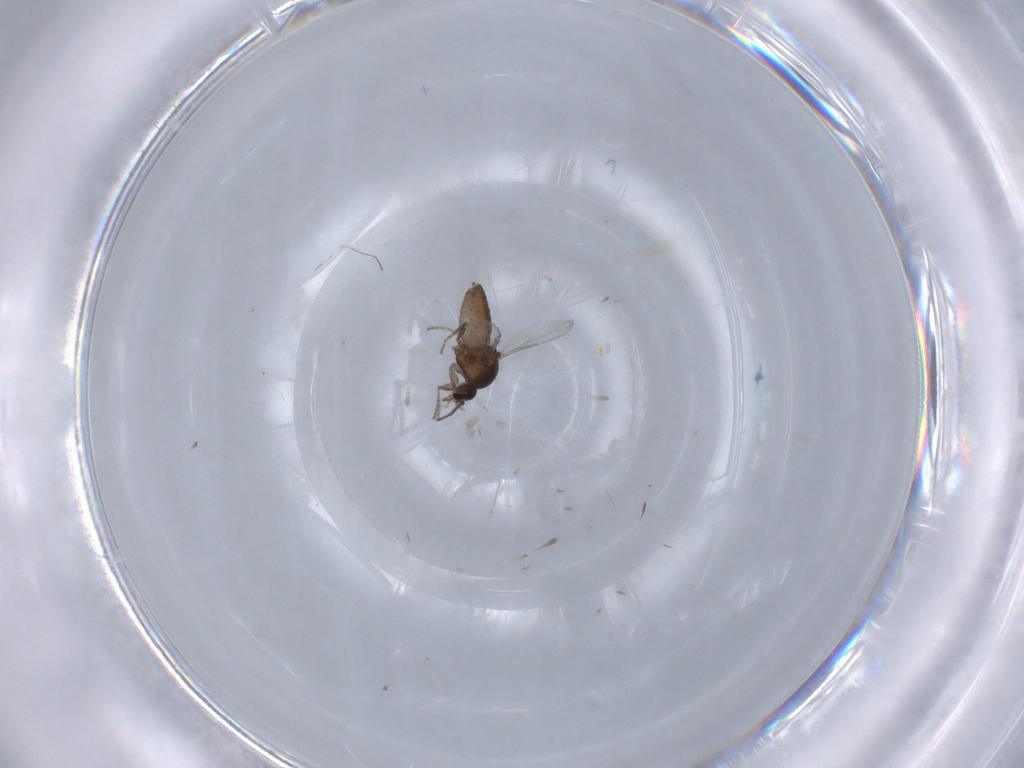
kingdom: Animalia
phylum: Arthropoda
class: Insecta
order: Diptera
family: Ceratopogonidae
